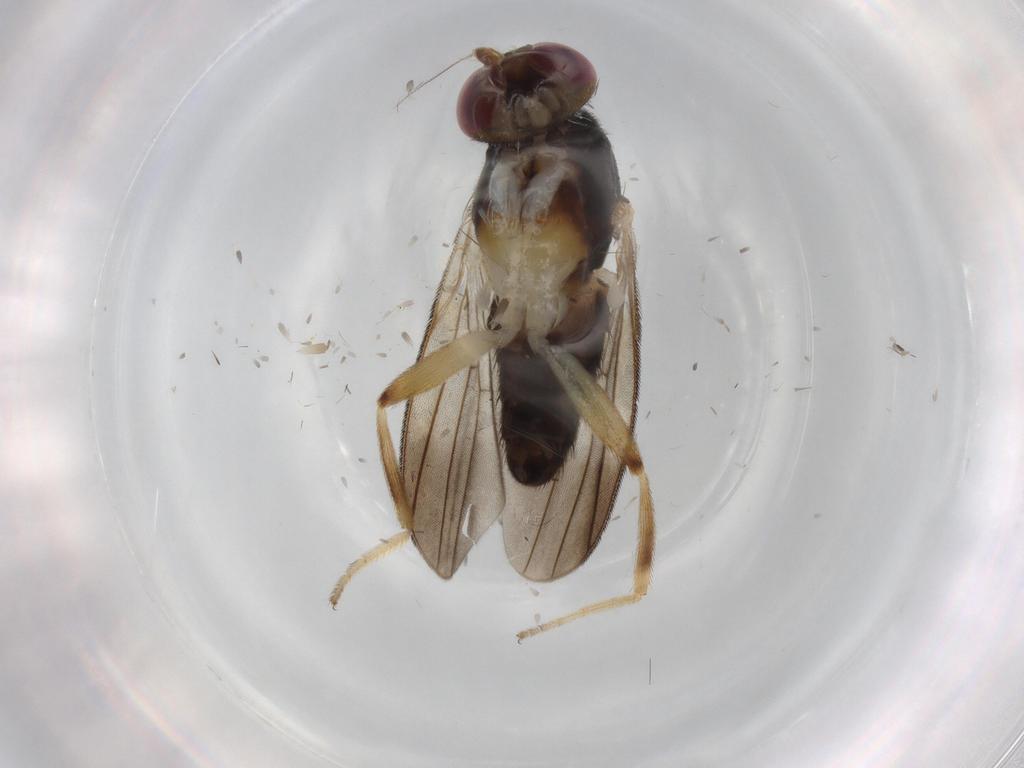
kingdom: Animalia
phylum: Arthropoda
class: Insecta
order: Diptera
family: Clusiidae
